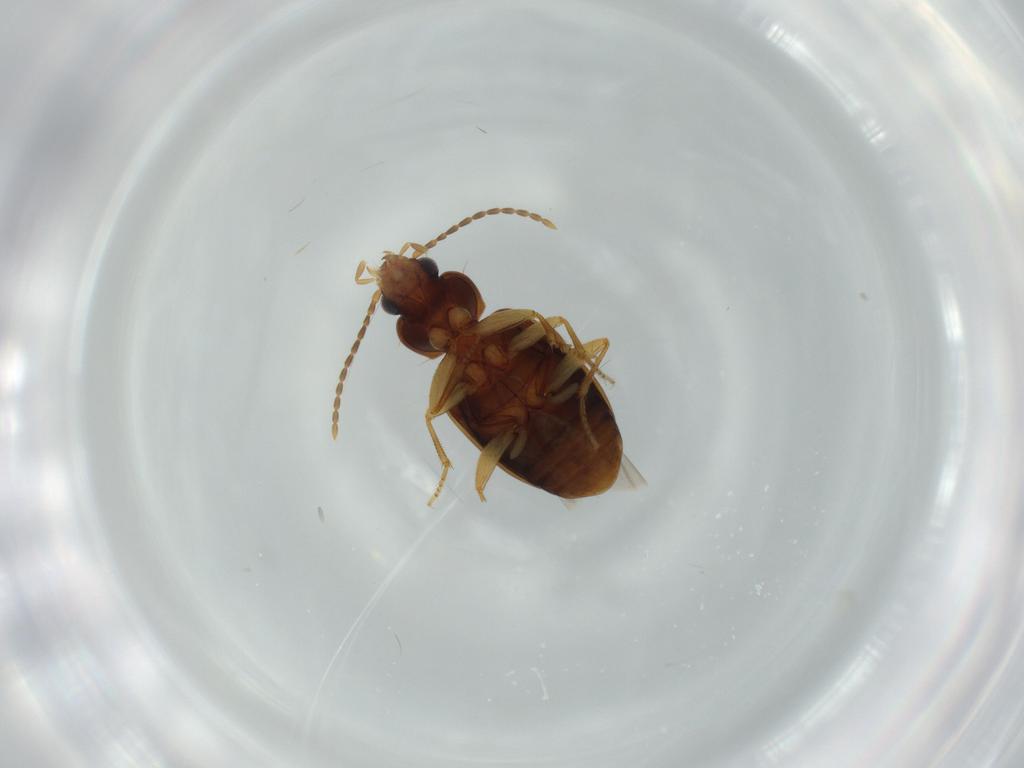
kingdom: Animalia
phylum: Arthropoda
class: Insecta
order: Coleoptera
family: Carabidae
